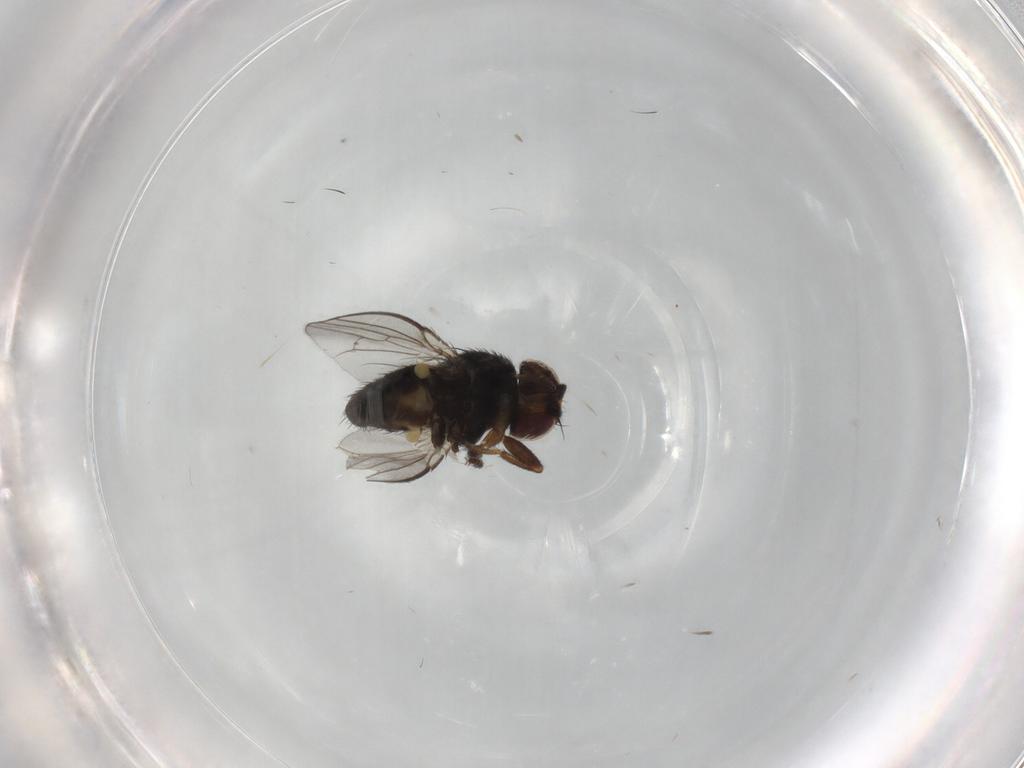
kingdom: Animalia
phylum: Arthropoda
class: Insecta
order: Diptera
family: Milichiidae
